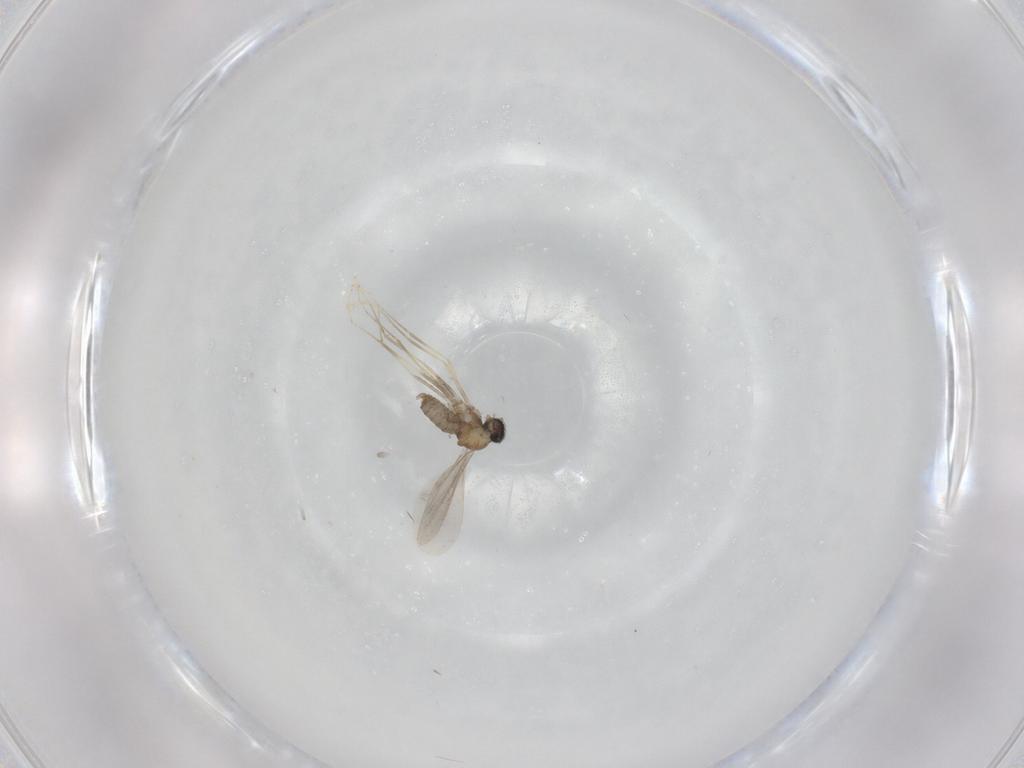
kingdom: Animalia
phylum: Arthropoda
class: Insecta
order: Diptera
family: Cecidomyiidae
